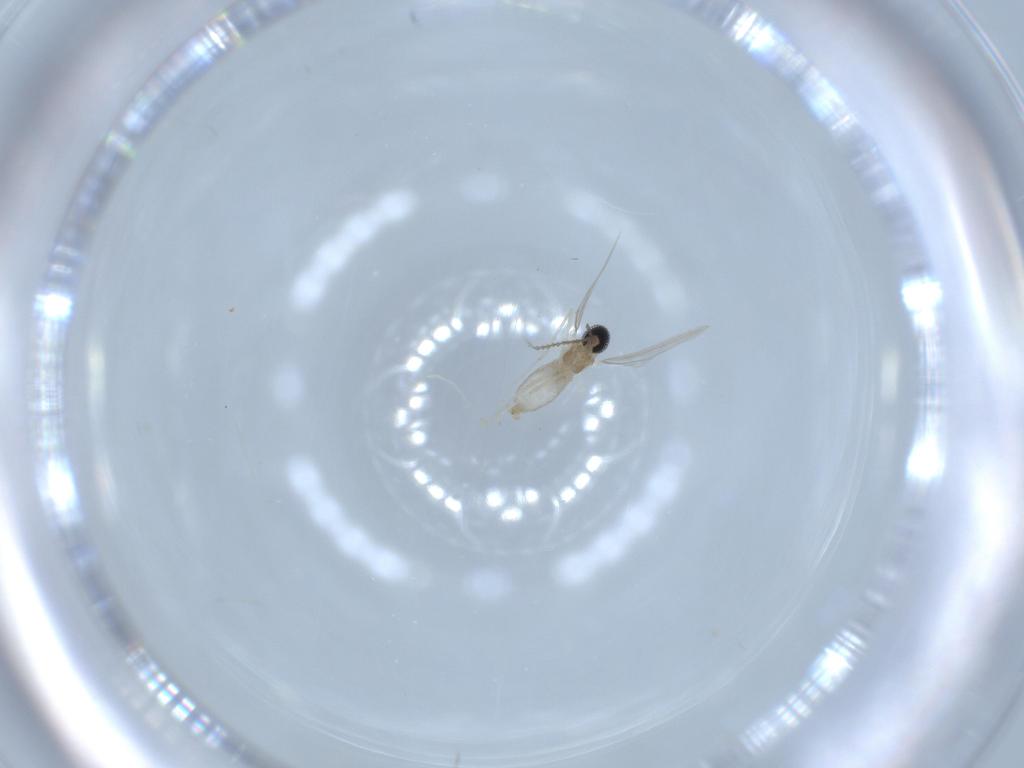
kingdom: Animalia
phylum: Arthropoda
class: Insecta
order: Diptera
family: Cecidomyiidae
